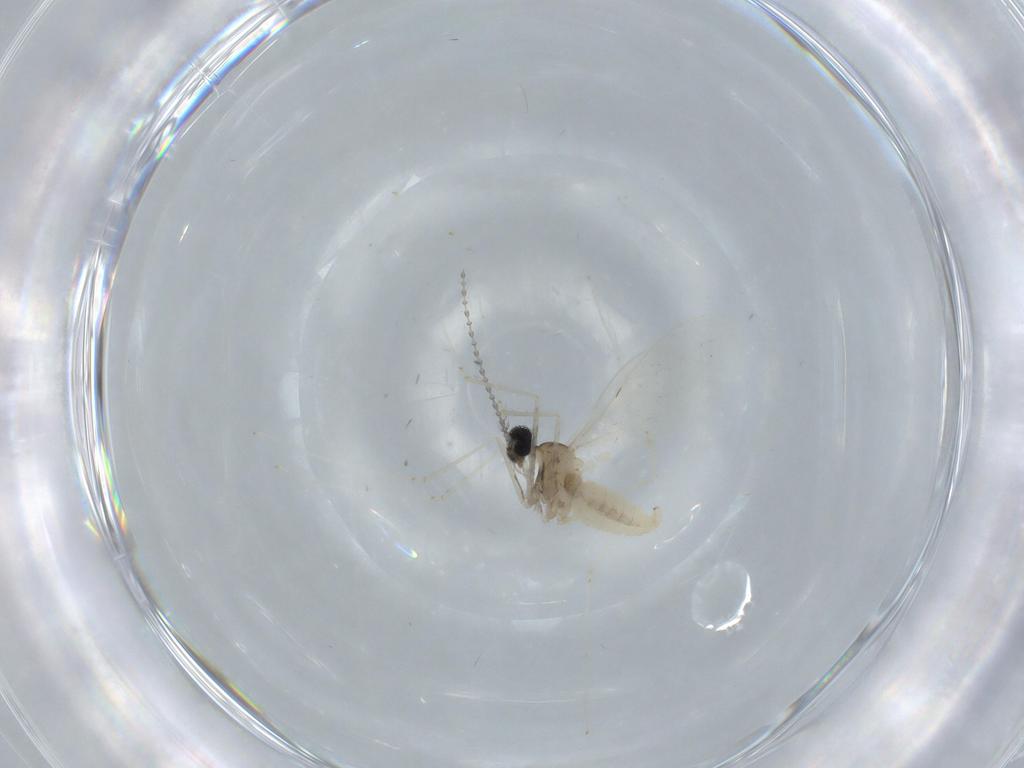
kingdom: Animalia
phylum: Arthropoda
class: Insecta
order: Diptera
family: Cecidomyiidae
